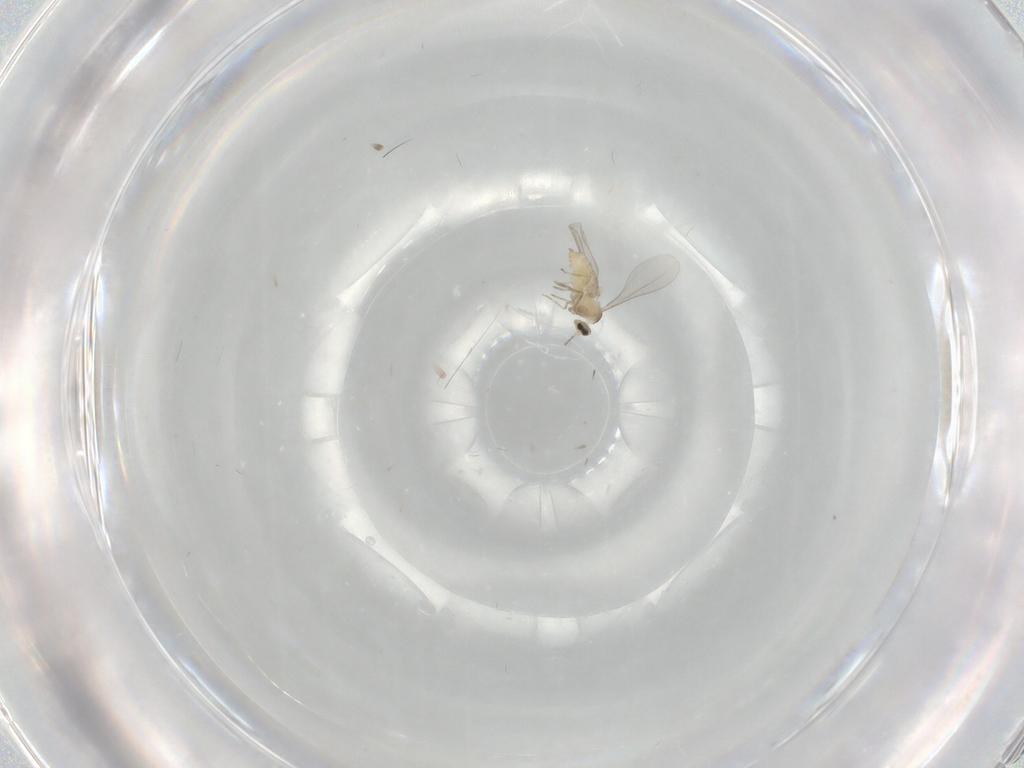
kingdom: Animalia
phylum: Arthropoda
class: Insecta
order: Diptera
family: Cecidomyiidae
